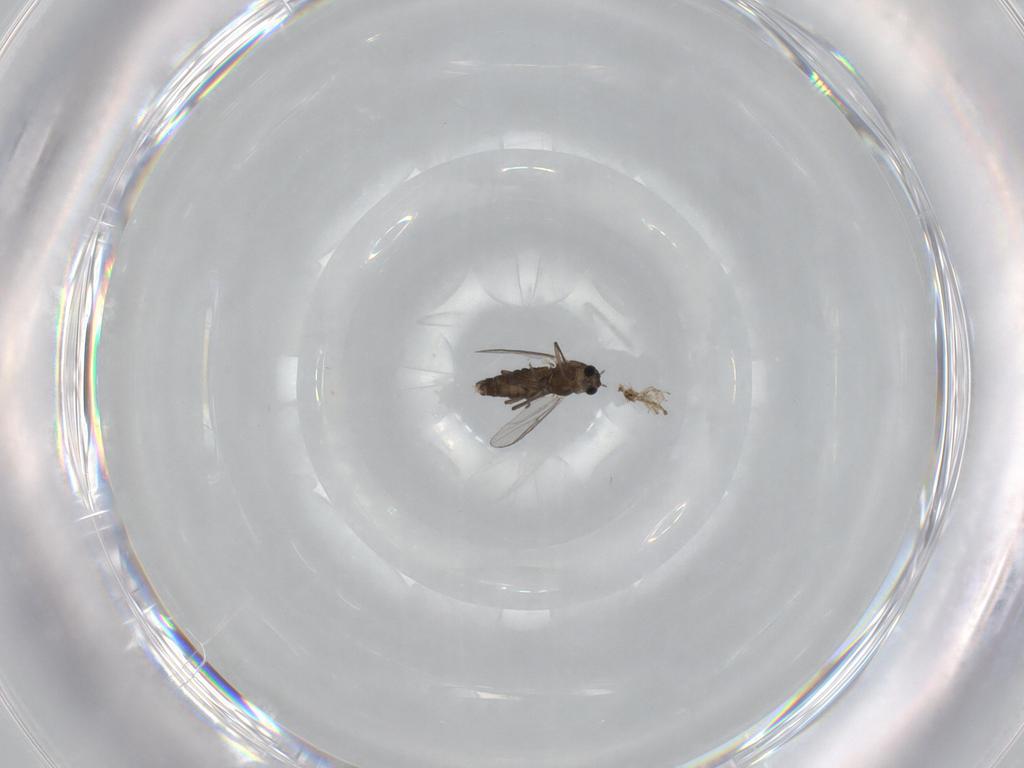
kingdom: Animalia
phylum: Arthropoda
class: Insecta
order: Diptera
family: Chironomidae
